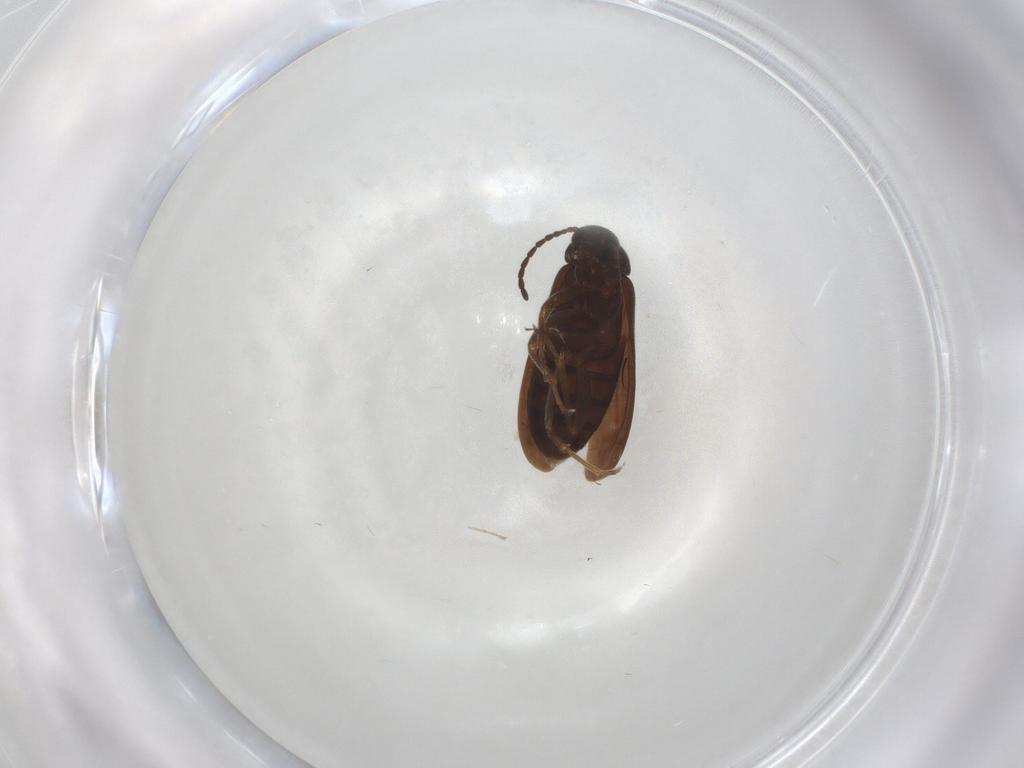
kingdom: Animalia
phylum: Arthropoda
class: Insecta
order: Coleoptera
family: Scraptiidae
